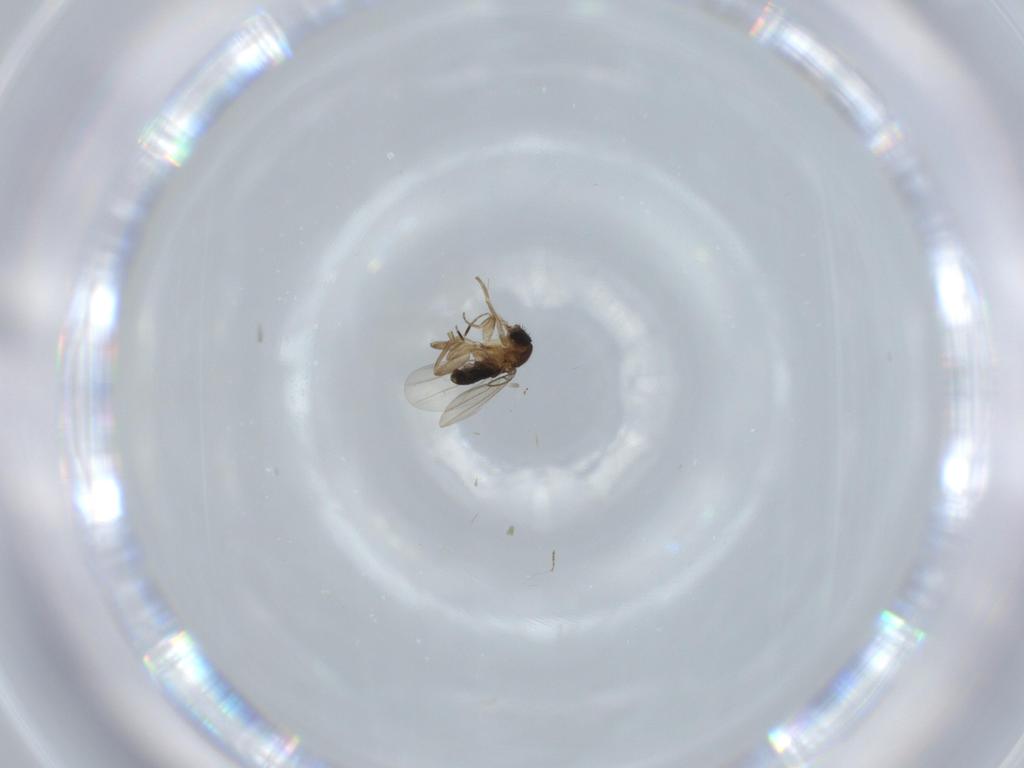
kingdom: Animalia
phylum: Arthropoda
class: Insecta
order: Diptera
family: Phoridae
